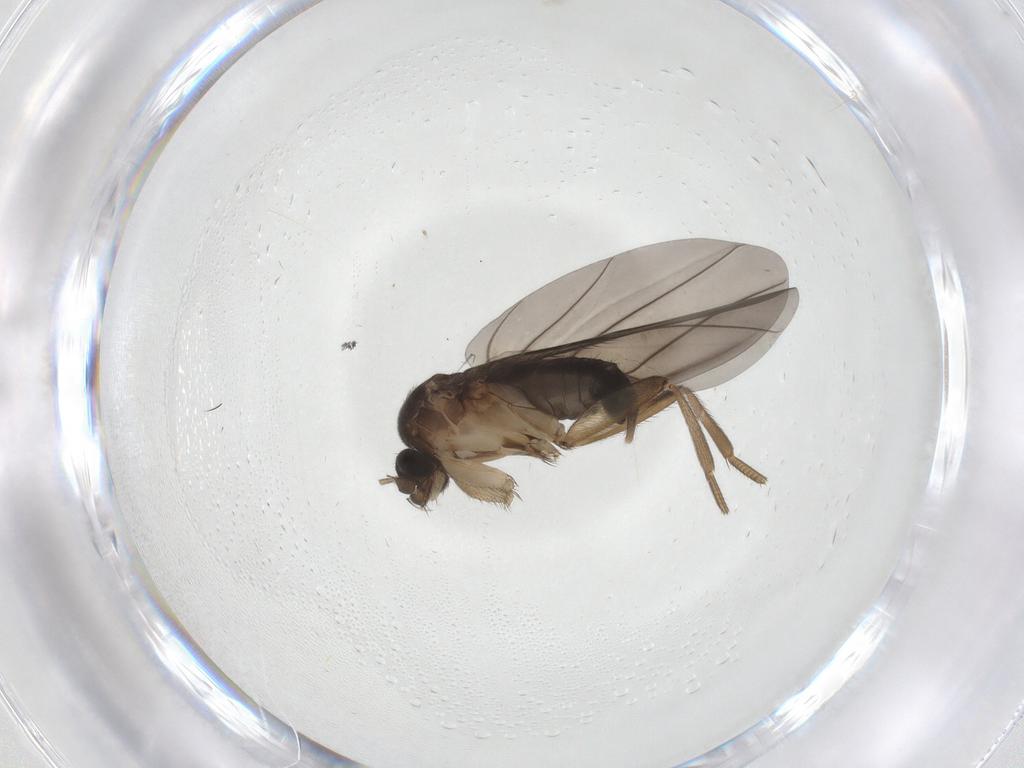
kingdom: Animalia
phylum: Arthropoda
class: Insecta
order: Diptera
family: Phoridae
